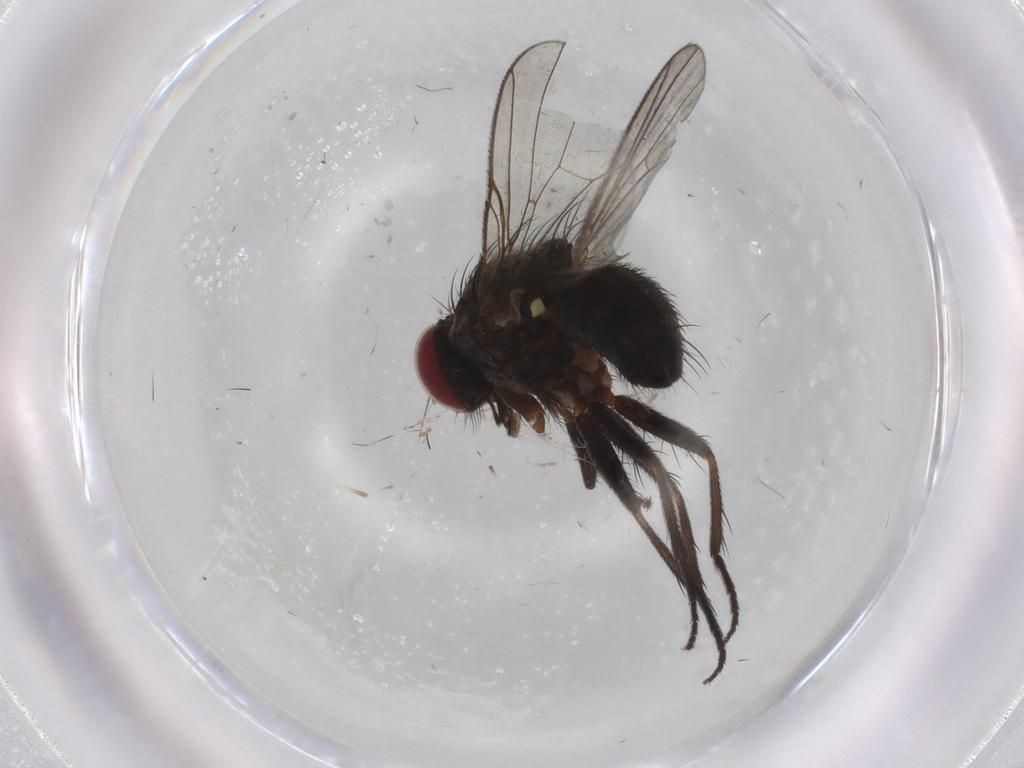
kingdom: Animalia
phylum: Arthropoda
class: Insecta
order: Diptera
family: Muscidae
